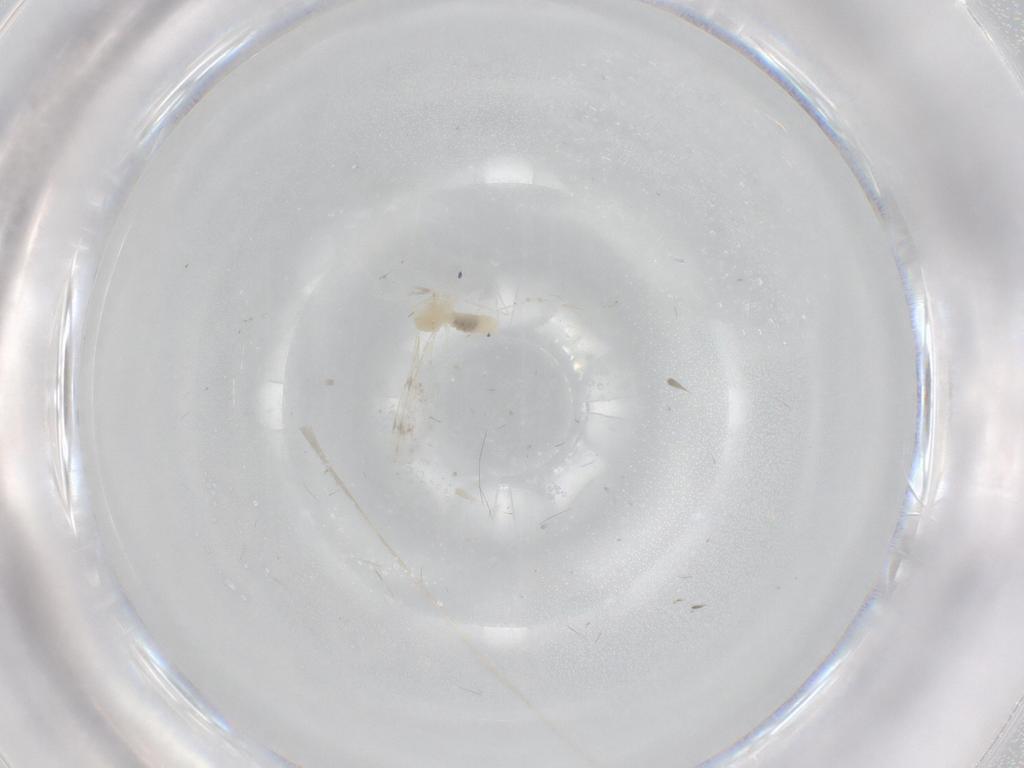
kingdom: Animalia
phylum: Arthropoda
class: Insecta
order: Diptera
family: Cecidomyiidae
